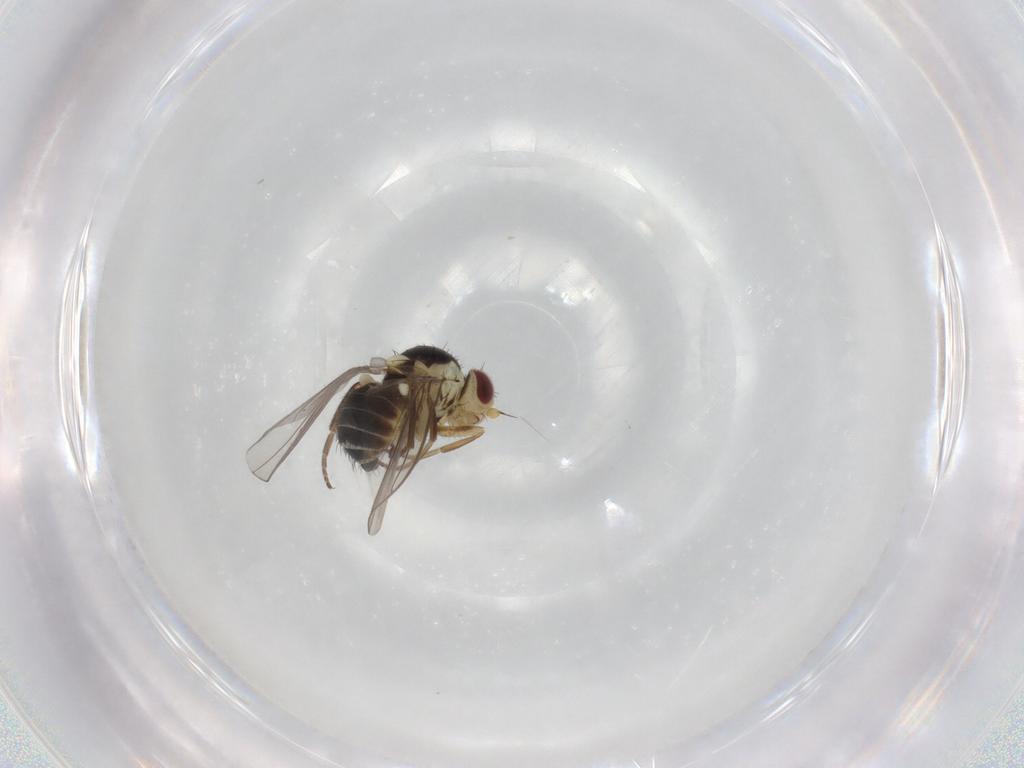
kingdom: Animalia
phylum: Arthropoda
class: Insecta
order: Diptera
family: Agromyzidae
